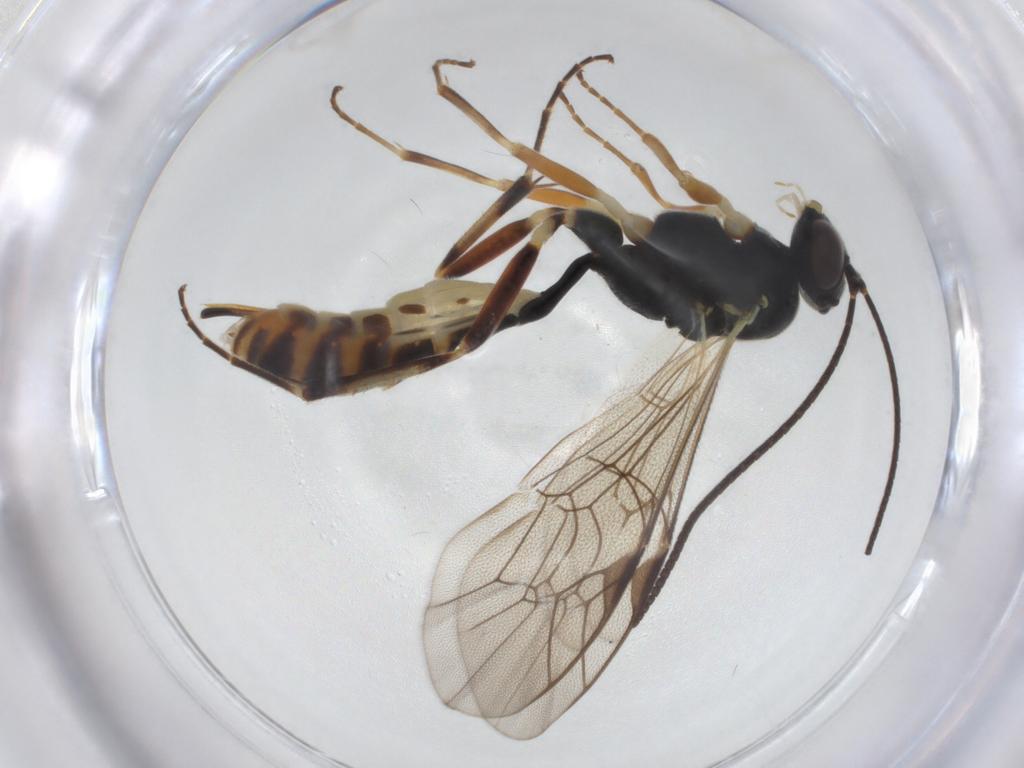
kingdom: Animalia
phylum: Arthropoda
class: Insecta
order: Hymenoptera
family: Ichneumonidae
